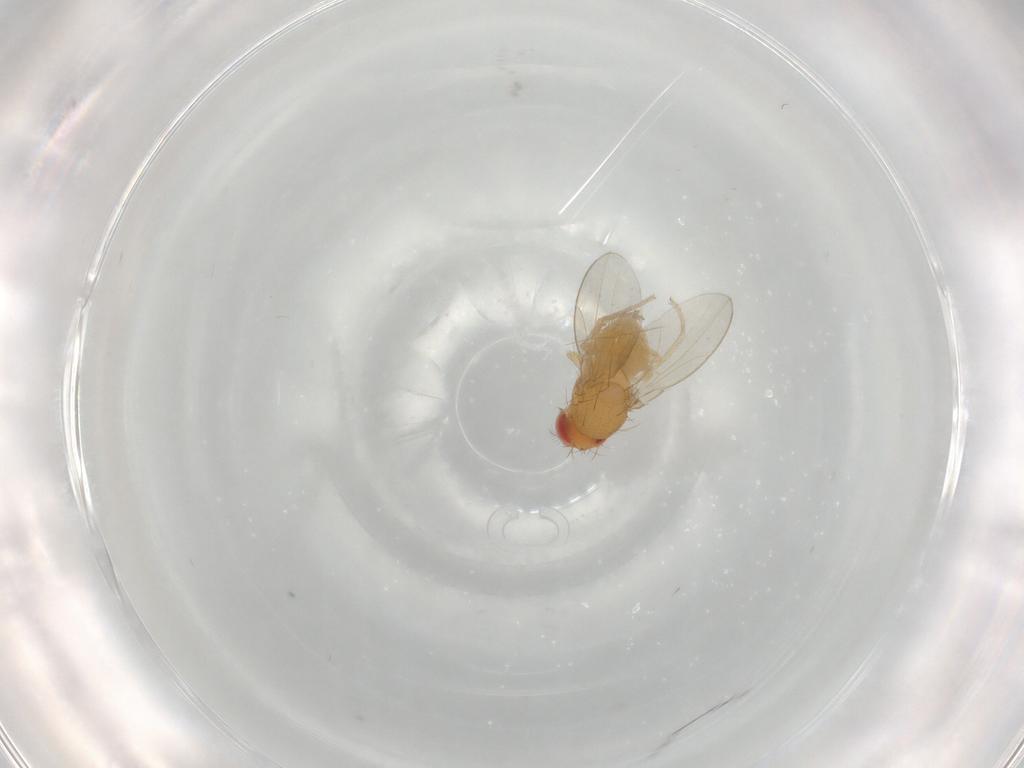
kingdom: Animalia
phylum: Arthropoda
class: Insecta
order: Diptera
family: Drosophilidae
